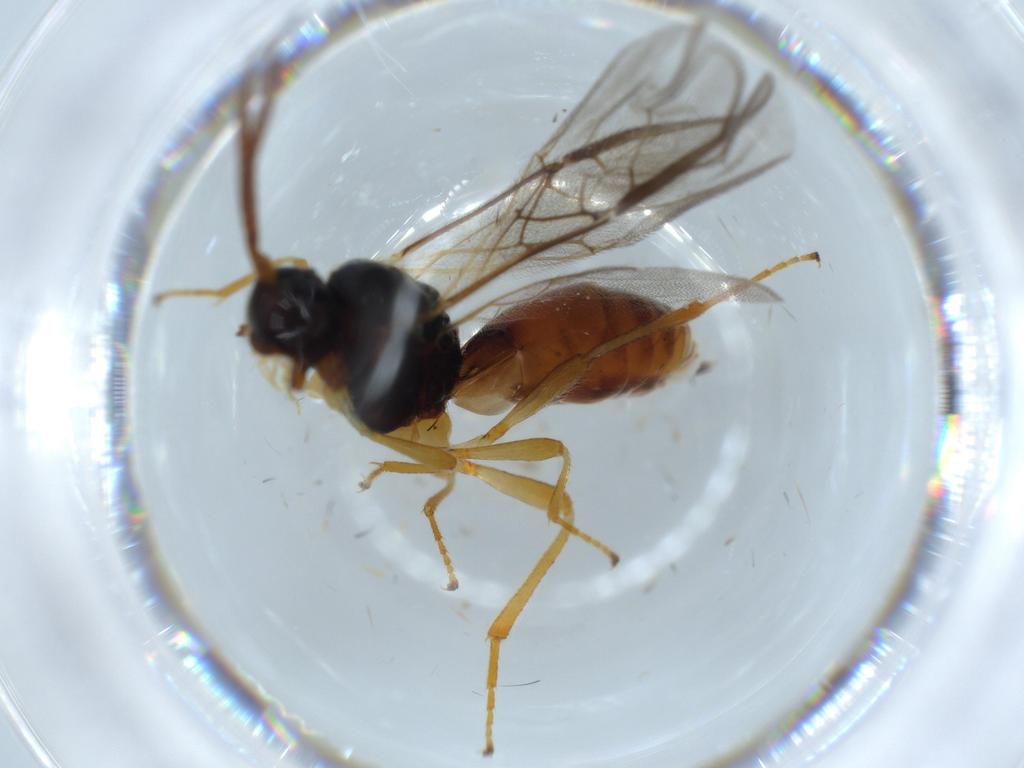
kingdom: Animalia
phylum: Arthropoda
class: Insecta
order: Hymenoptera
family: Braconidae
